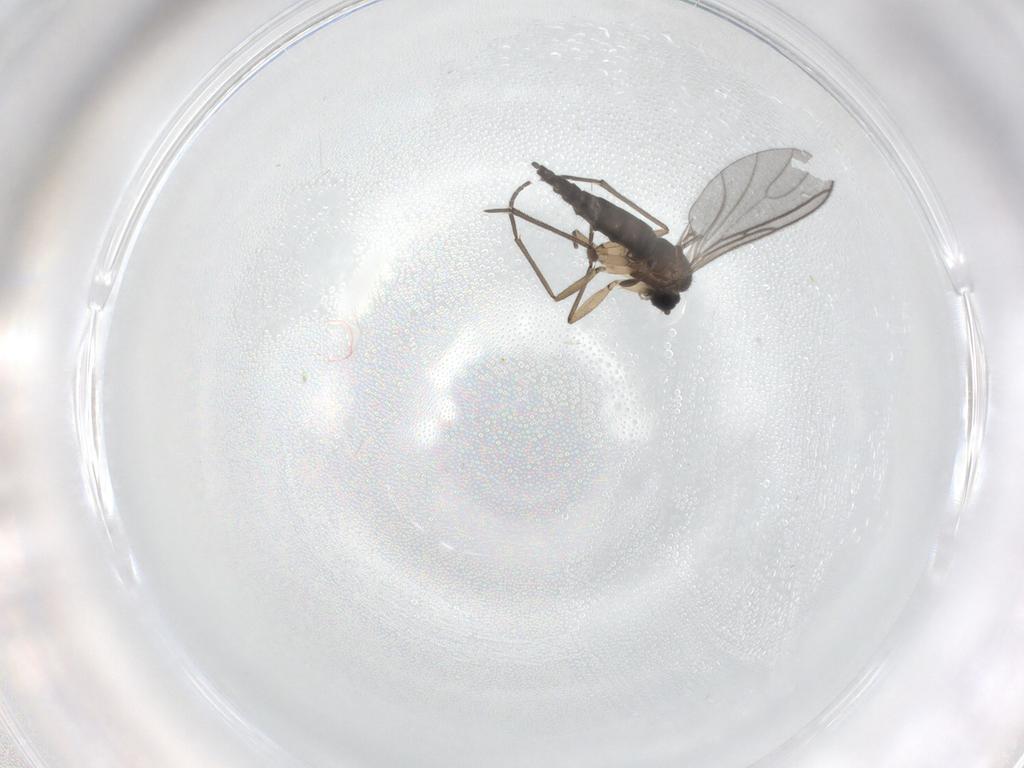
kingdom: Animalia
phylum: Arthropoda
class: Insecta
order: Diptera
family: Sciaridae
